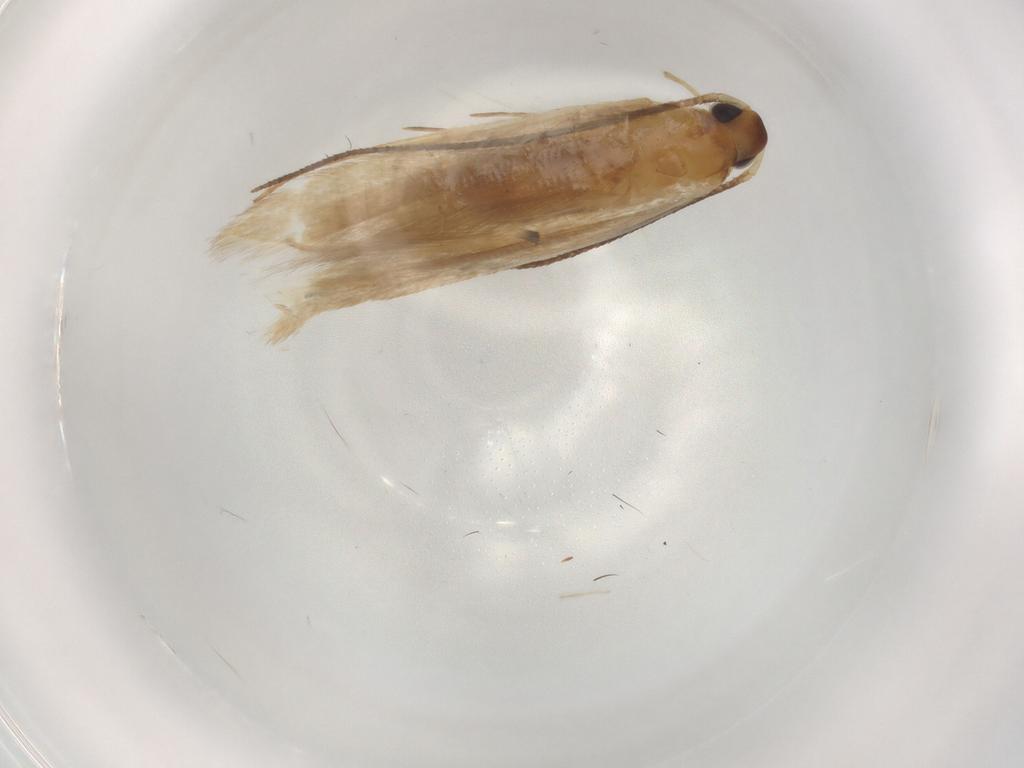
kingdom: Animalia
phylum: Arthropoda
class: Insecta
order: Lepidoptera
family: Lecithoceridae
